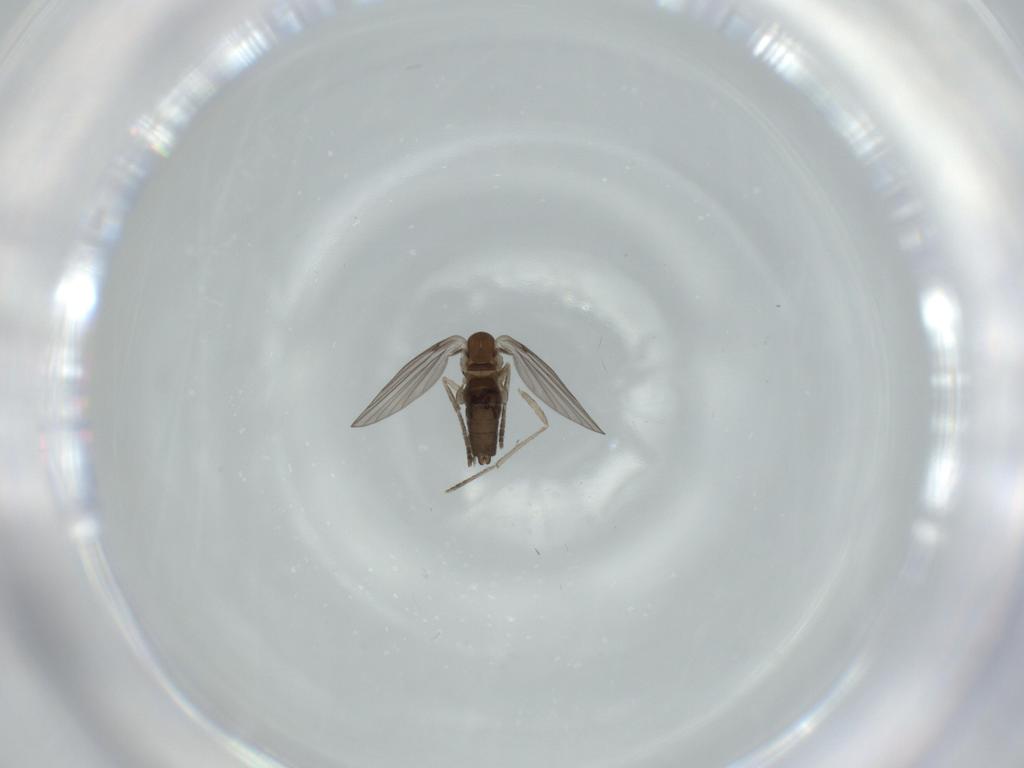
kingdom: Animalia
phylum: Arthropoda
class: Insecta
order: Diptera
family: Psychodidae
